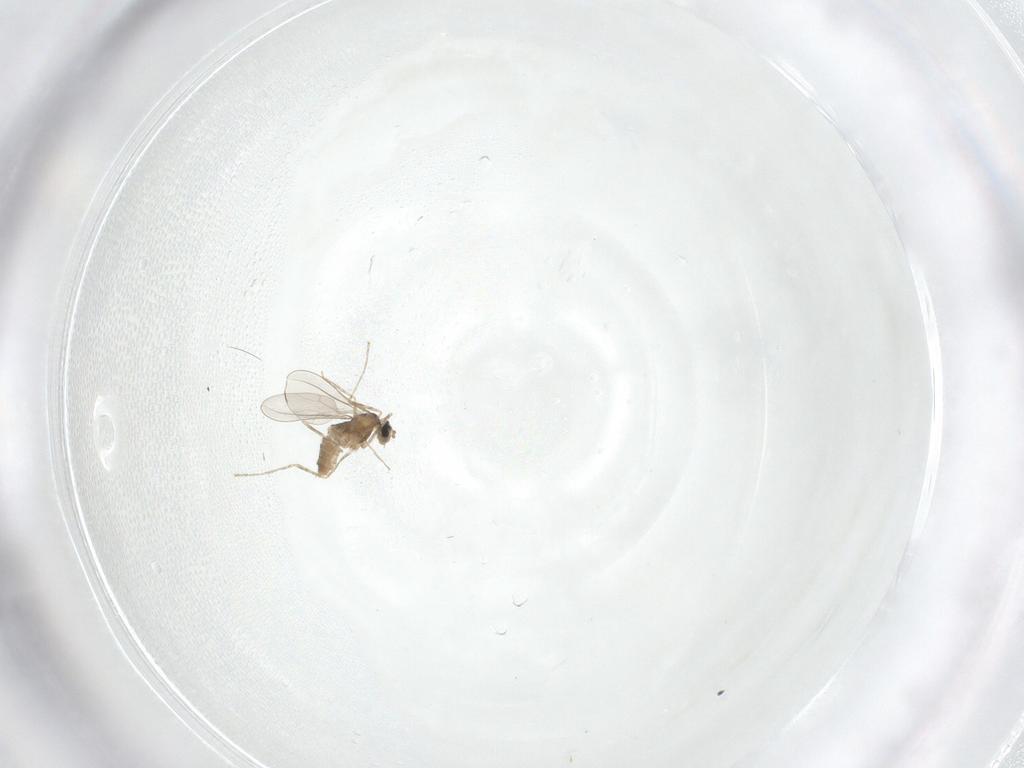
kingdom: Animalia
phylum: Arthropoda
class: Insecta
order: Diptera
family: Cecidomyiidae
